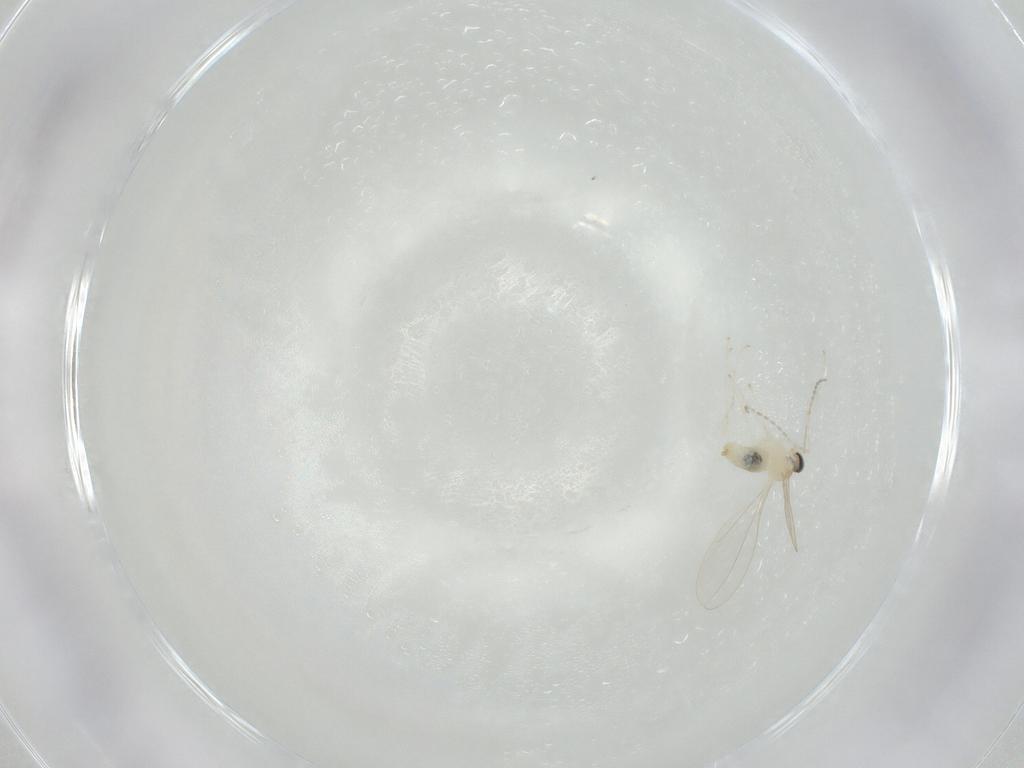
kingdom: Animalia
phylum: Arthropoda
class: Insecta
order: Diptera
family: Cecidomyiidae
